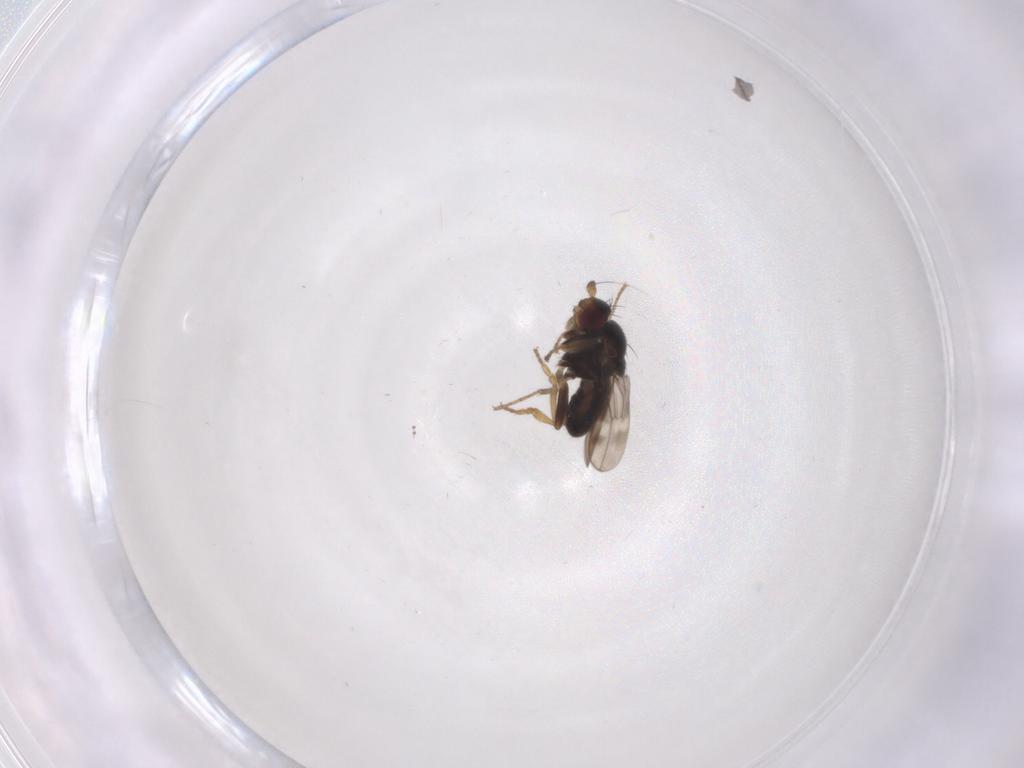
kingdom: Animalia
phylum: Arthropoda
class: Insecta
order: Diptera
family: Sphaeroceridae
